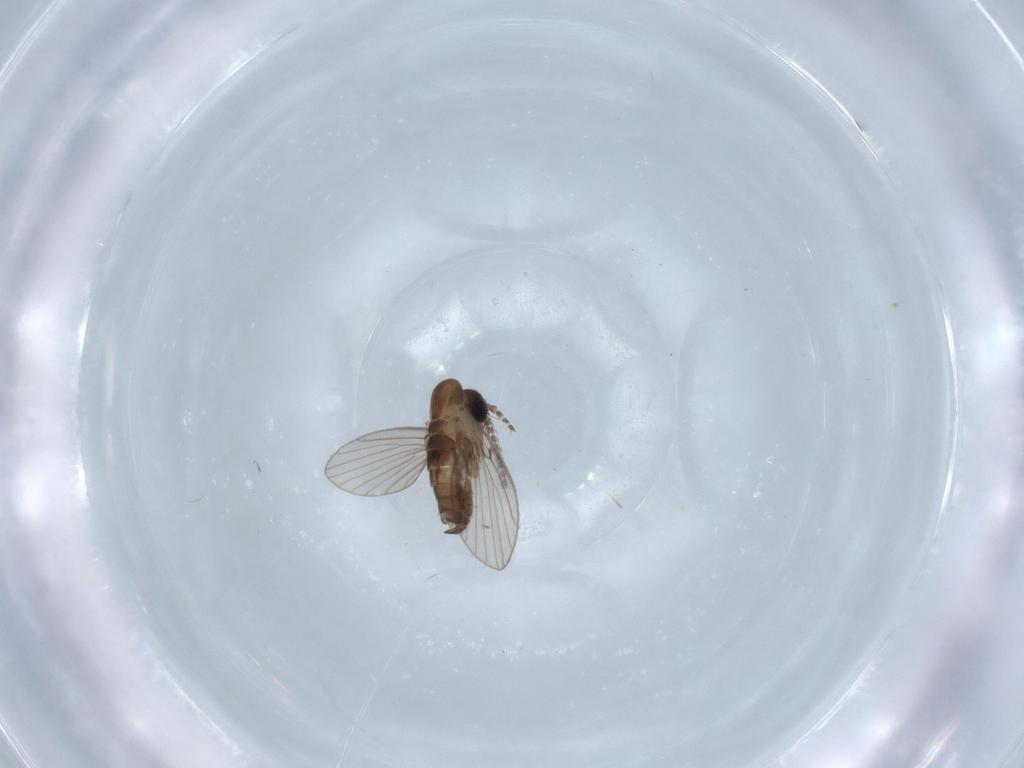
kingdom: Animalia
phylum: Arthropoda
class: Insecta
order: Diptera
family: Psychodidae
